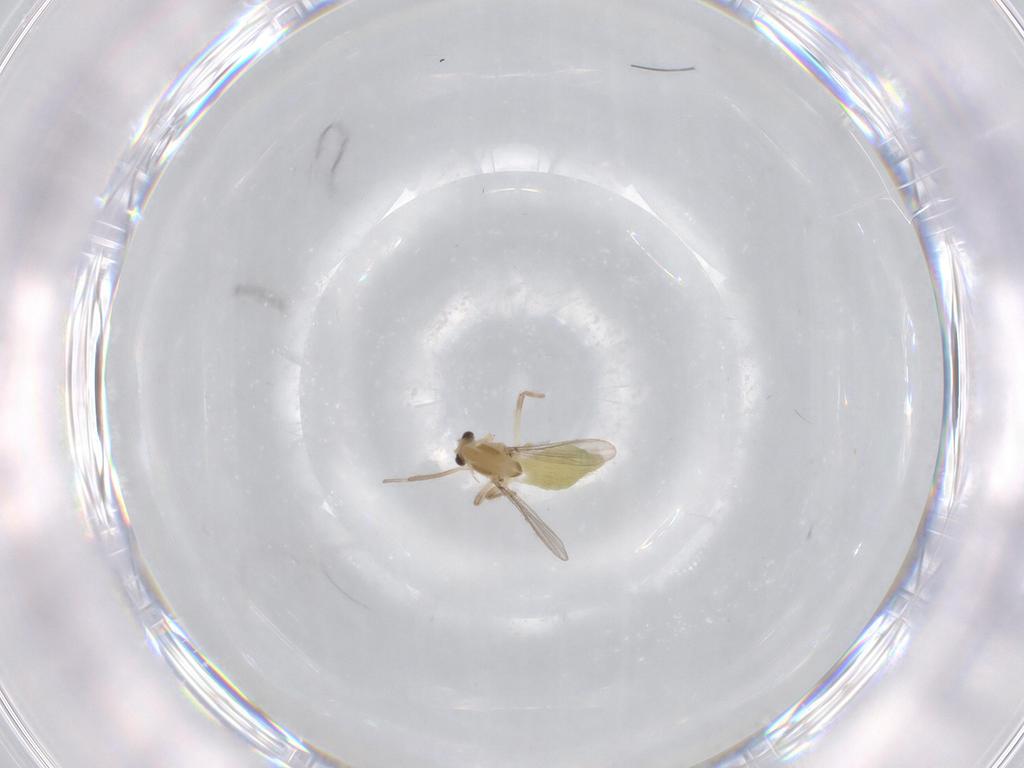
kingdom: Animalia
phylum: Arthropoda
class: Insecta
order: Diptera
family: Chironomidae
